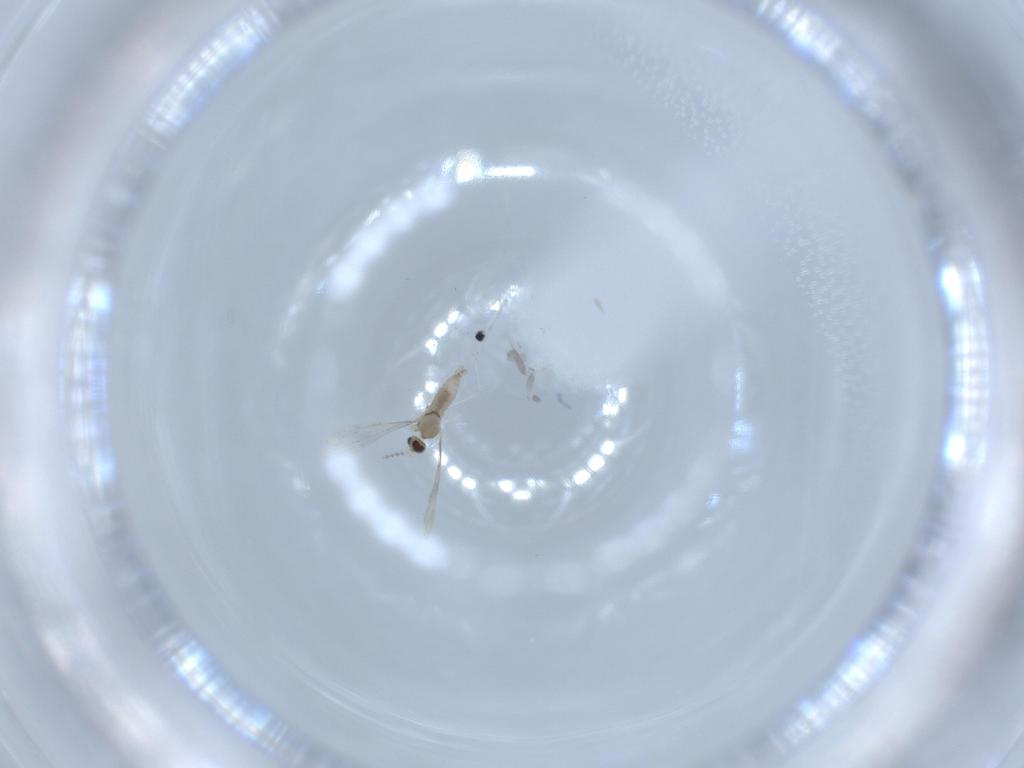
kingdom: Animalia
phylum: Arthropoda
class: Insecta
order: Diptera
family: Cecidomyiidae
